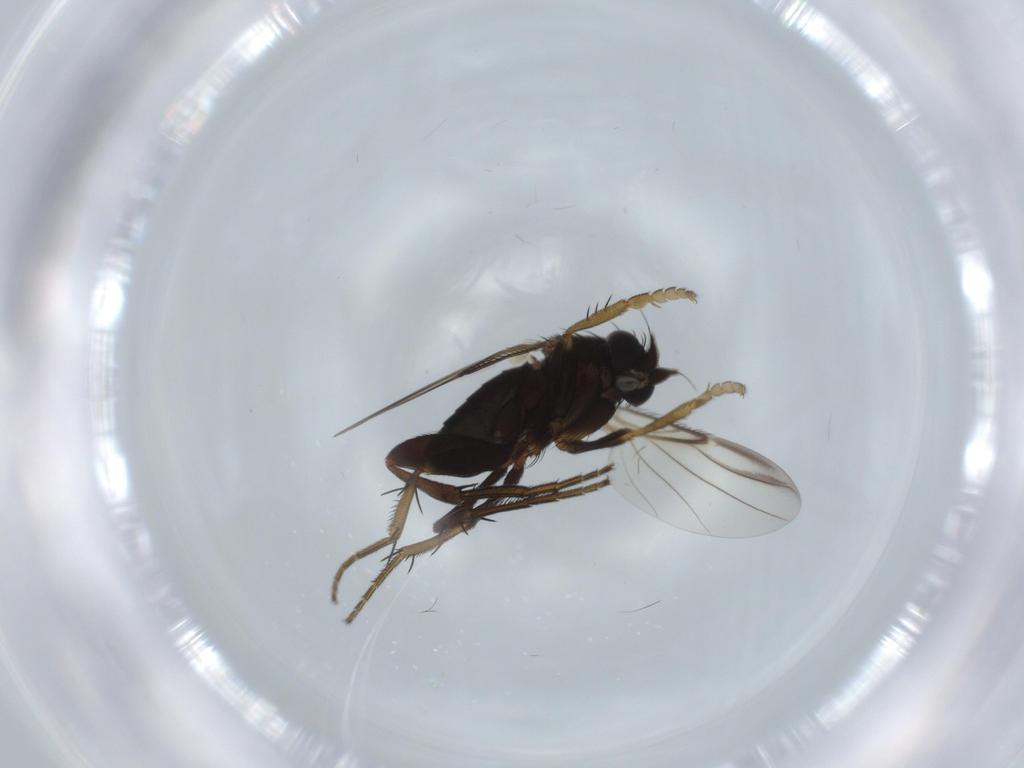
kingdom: Animalia
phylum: Arthropoda
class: Insecta
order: Diptera
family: Phoridae
